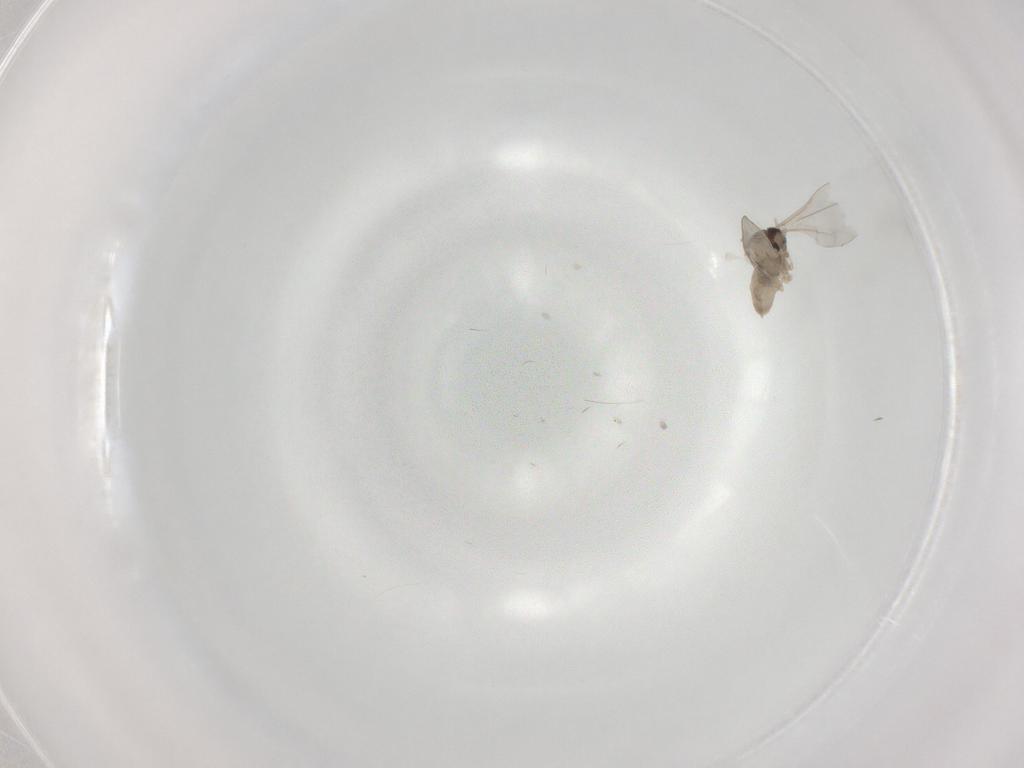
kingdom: Animalia
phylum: Arthropoda
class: Insecta
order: Diptera
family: Cecidomyiidae
